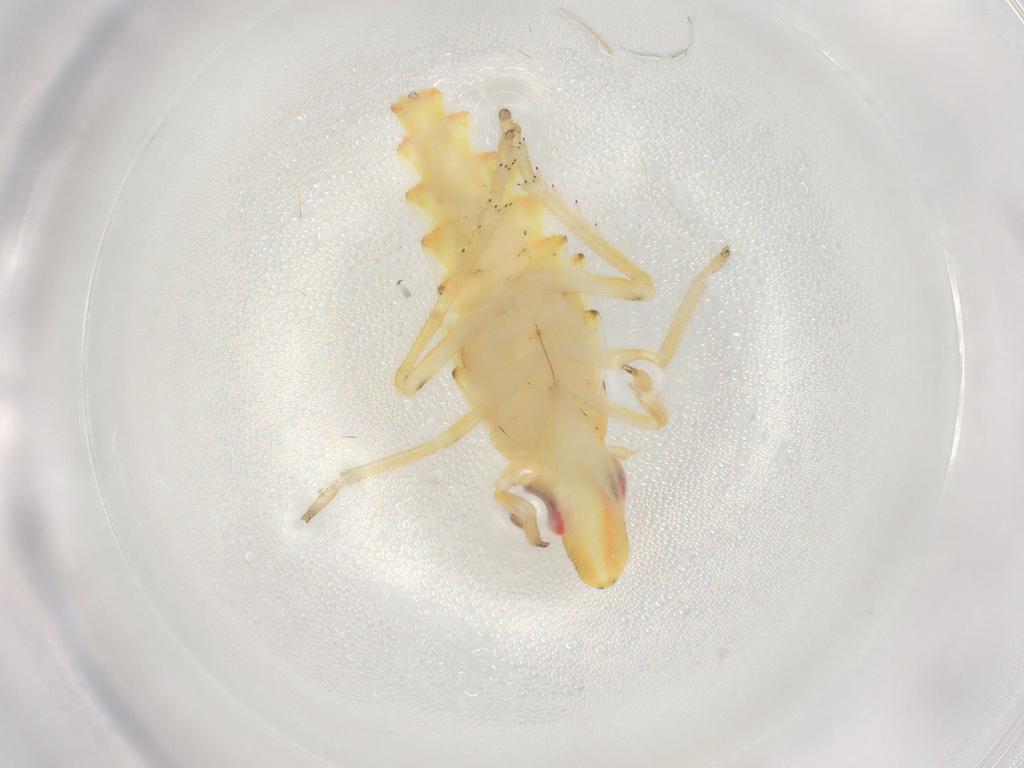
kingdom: Animalia
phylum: Arthropoda
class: Insecta
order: Hemiptera
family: Tropiduchidae
